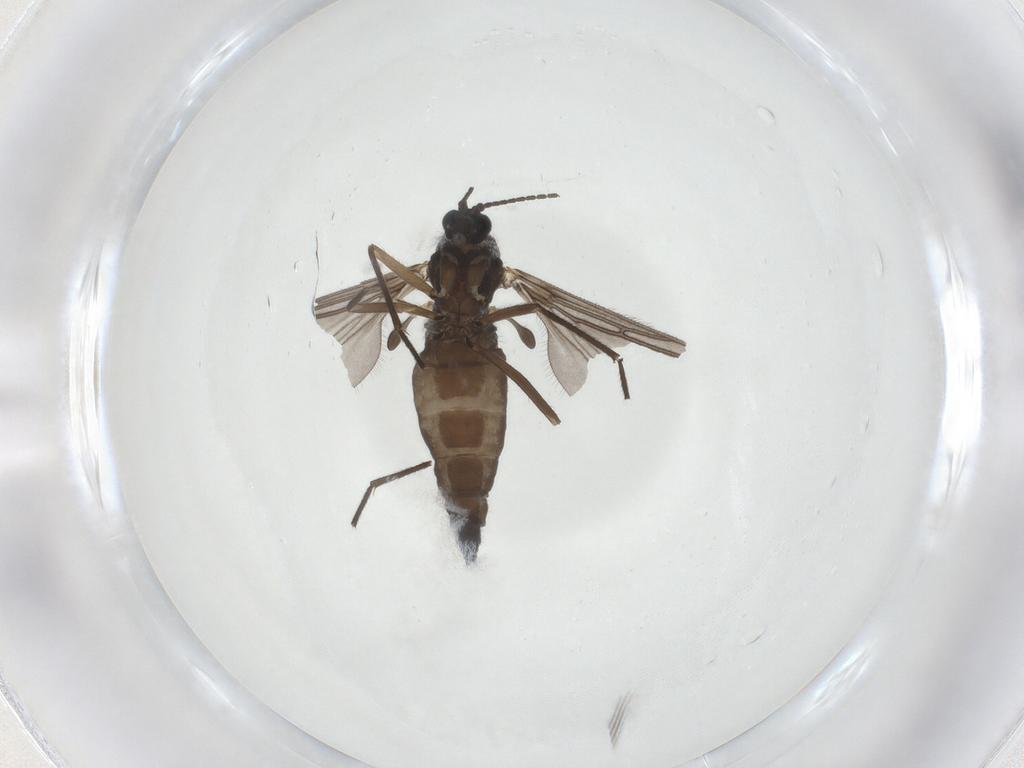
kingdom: Animalia
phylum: Arthropoda
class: Insecta
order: Diptera
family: Sciaridae
